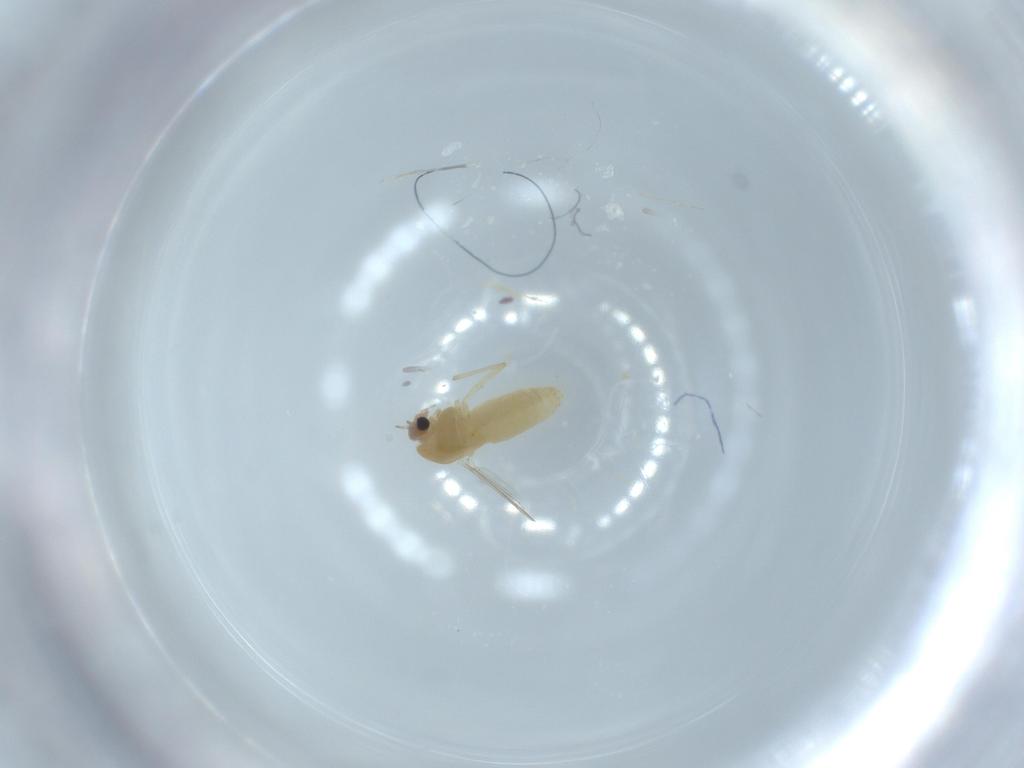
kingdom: Animalia
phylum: Arthropoda
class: Insecta
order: Diptera
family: Chironomidae
